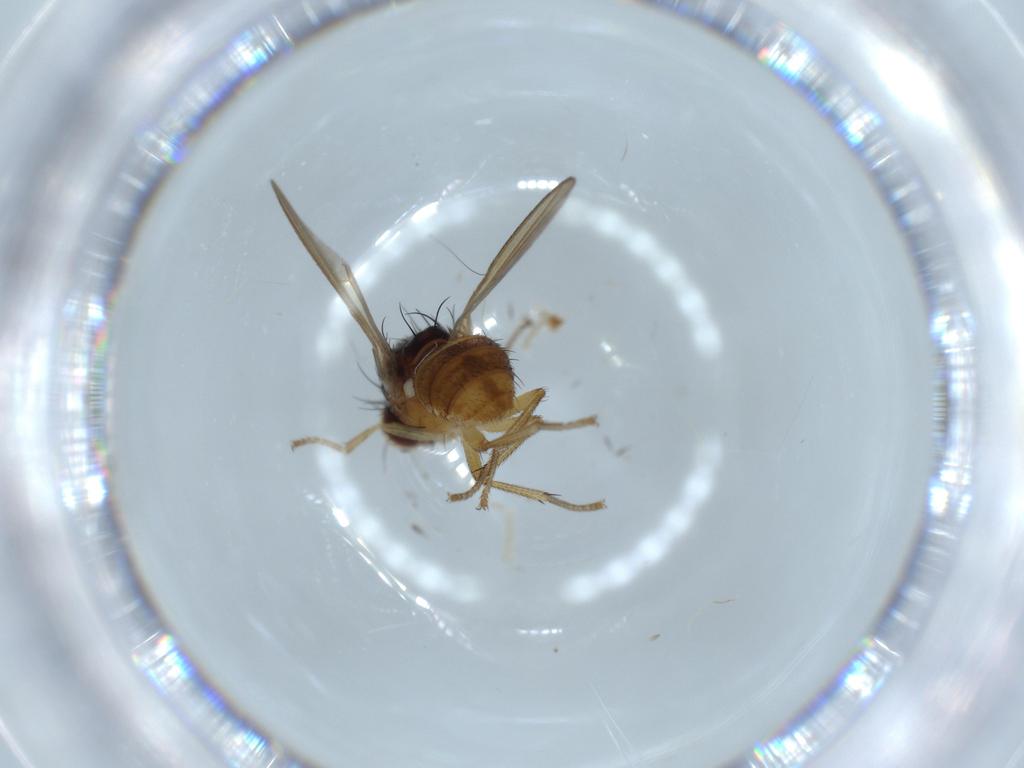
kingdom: Animalia
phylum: Arthropoda
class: Insecta
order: Diptera
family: Lauxaniidae
